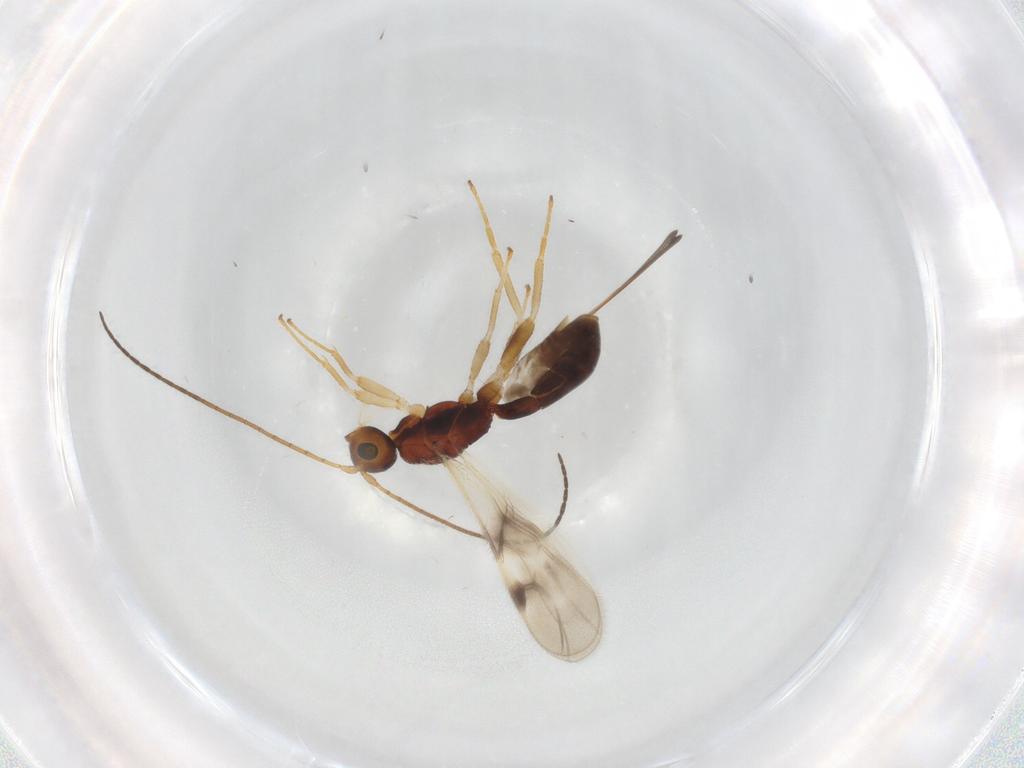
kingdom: Animalia
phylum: Arthropoda
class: Insecta
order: Hymenoptera
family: Braconidae
